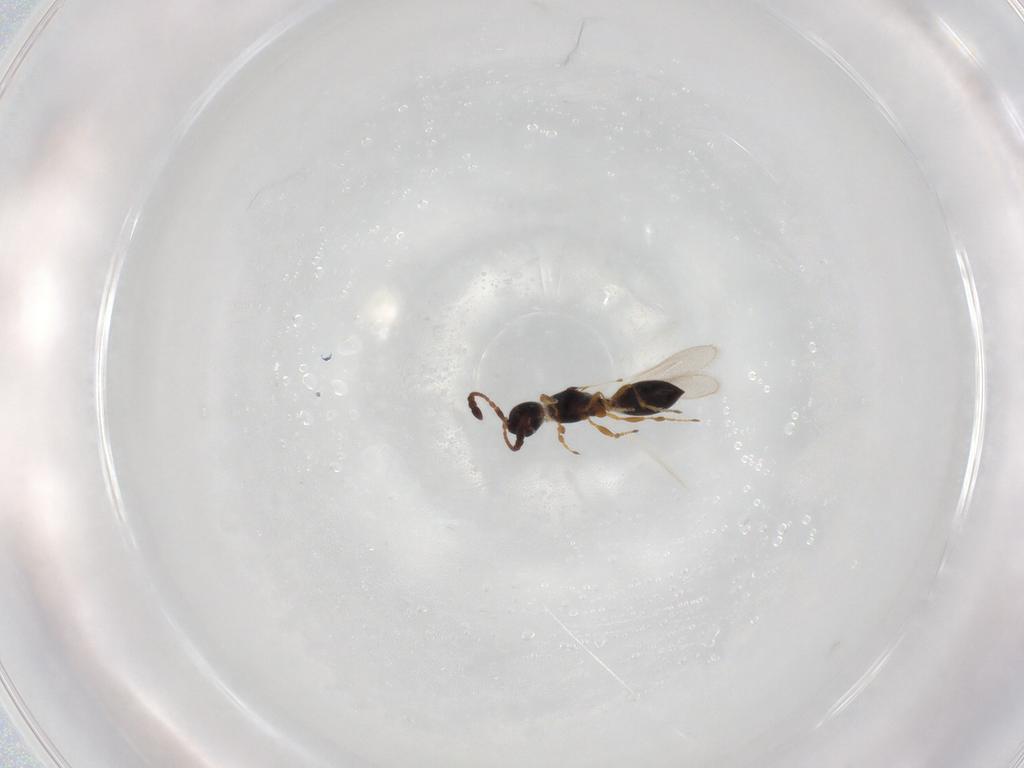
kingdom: Animalia
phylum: Arthropoda
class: Insecta
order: Hymenoptera
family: Diapriidae
